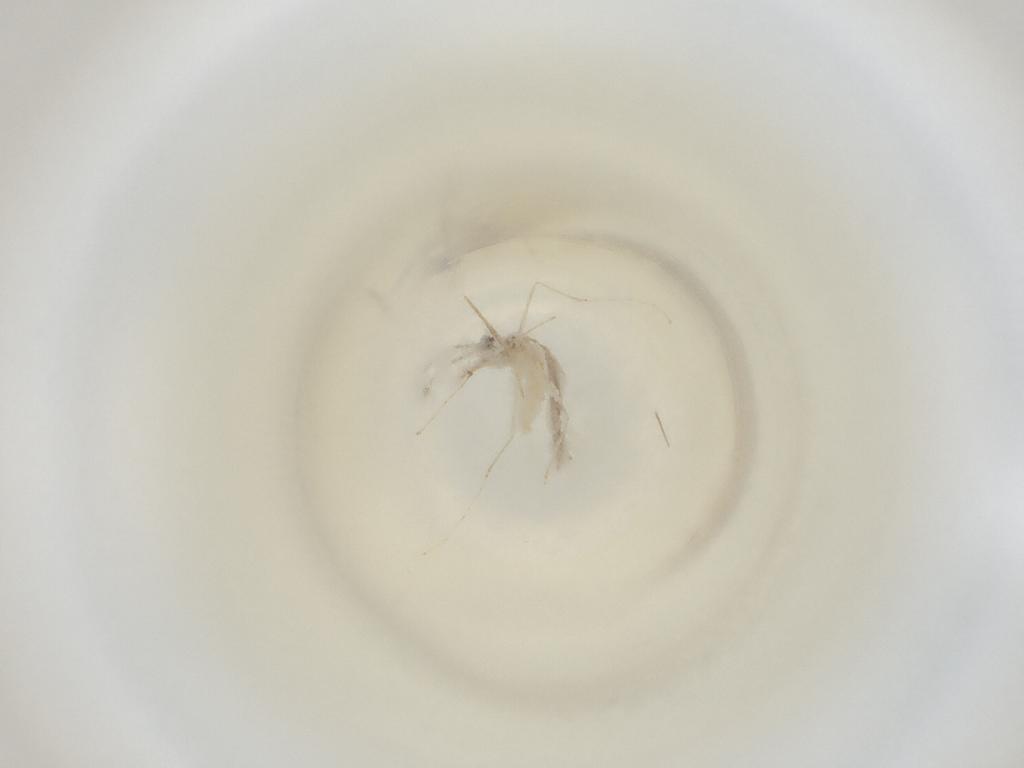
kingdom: Animalia
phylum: Arthropoda
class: Insecta
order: Diptera
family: Cecidomyiidae
